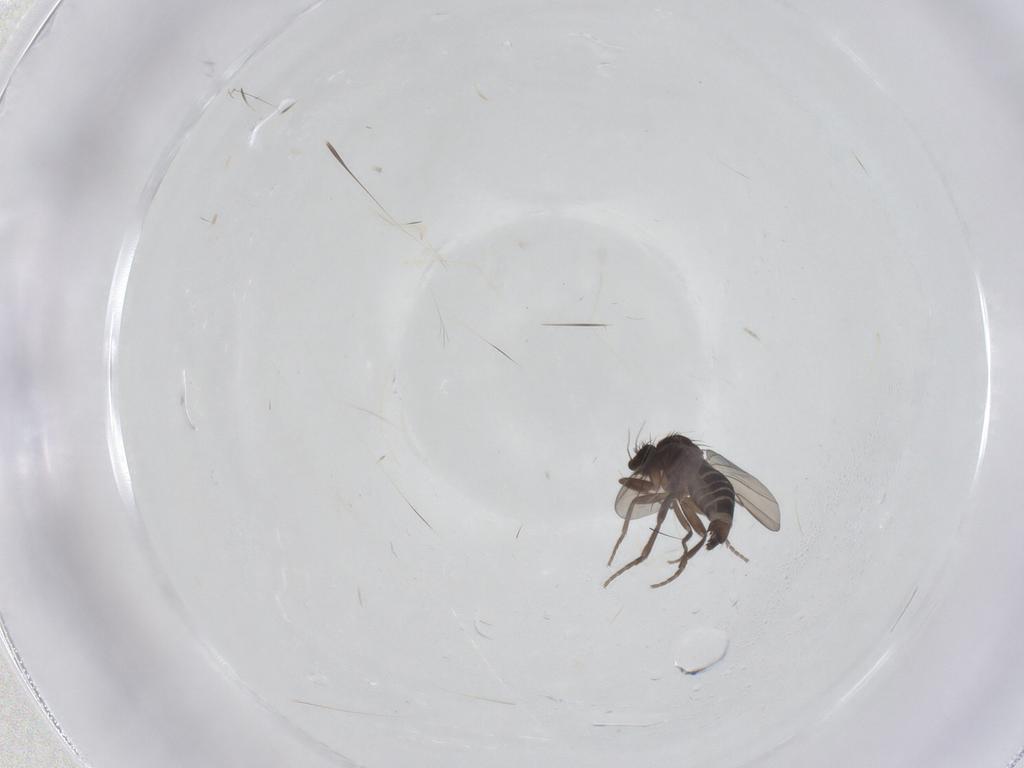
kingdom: Animalia
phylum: Arthropoda
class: Insecta
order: Diptera
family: Phoridae
